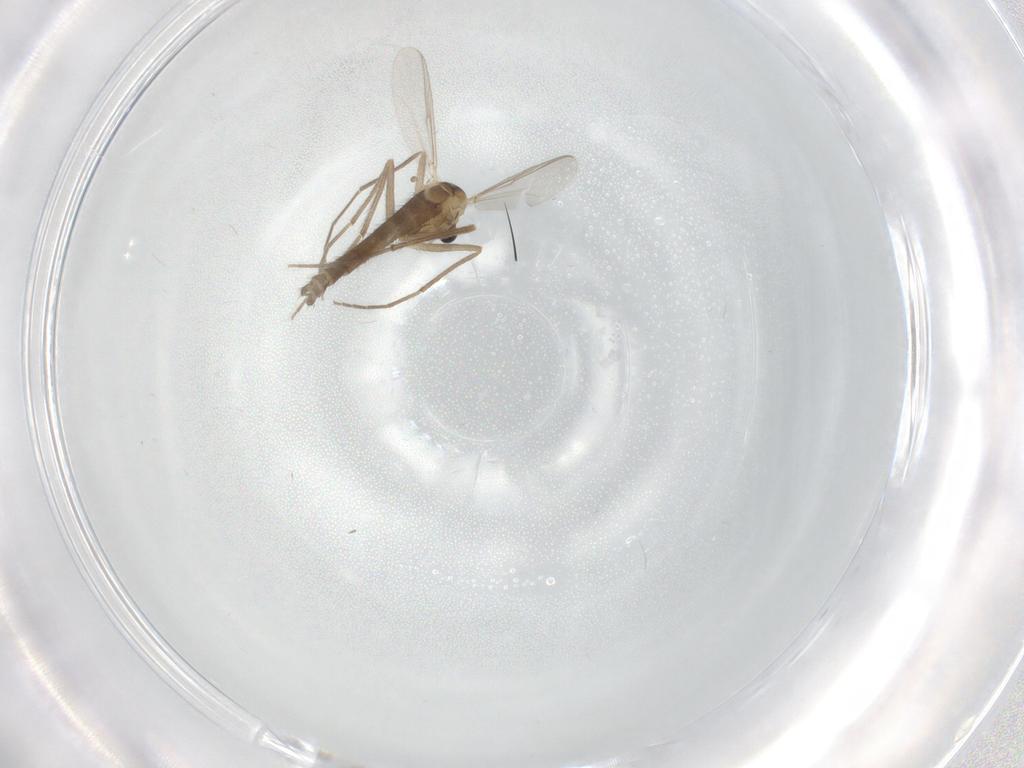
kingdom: Animalia
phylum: Arthropoda
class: Insecta
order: Diptera
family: Chironomidae
